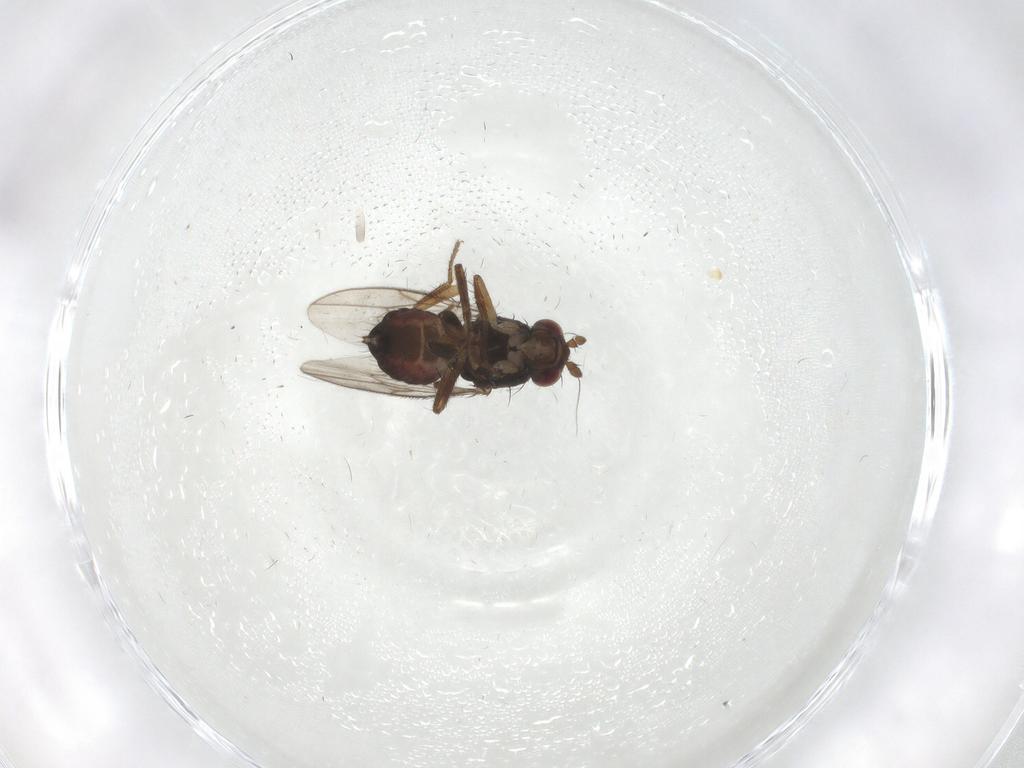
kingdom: Animalia
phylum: Arthropoda
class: Insecta
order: Diptera
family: Sphaeroceridae
